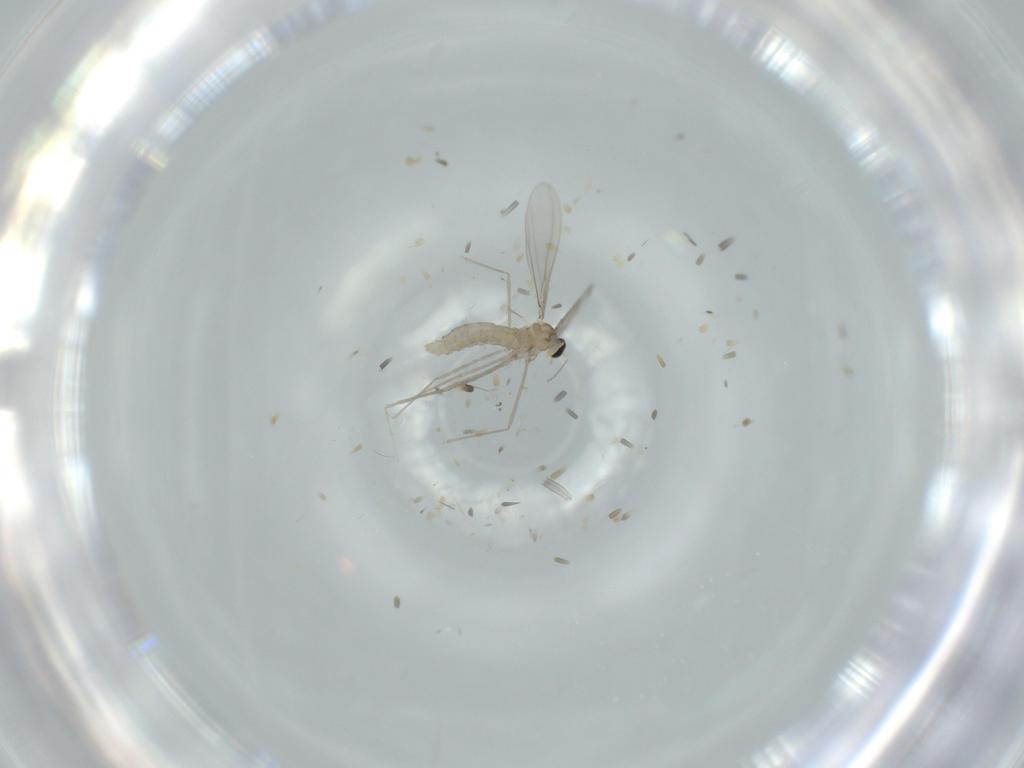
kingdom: Animalia
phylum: Arthropoda
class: Insecta
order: Diptera
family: Cecidomyiidae
